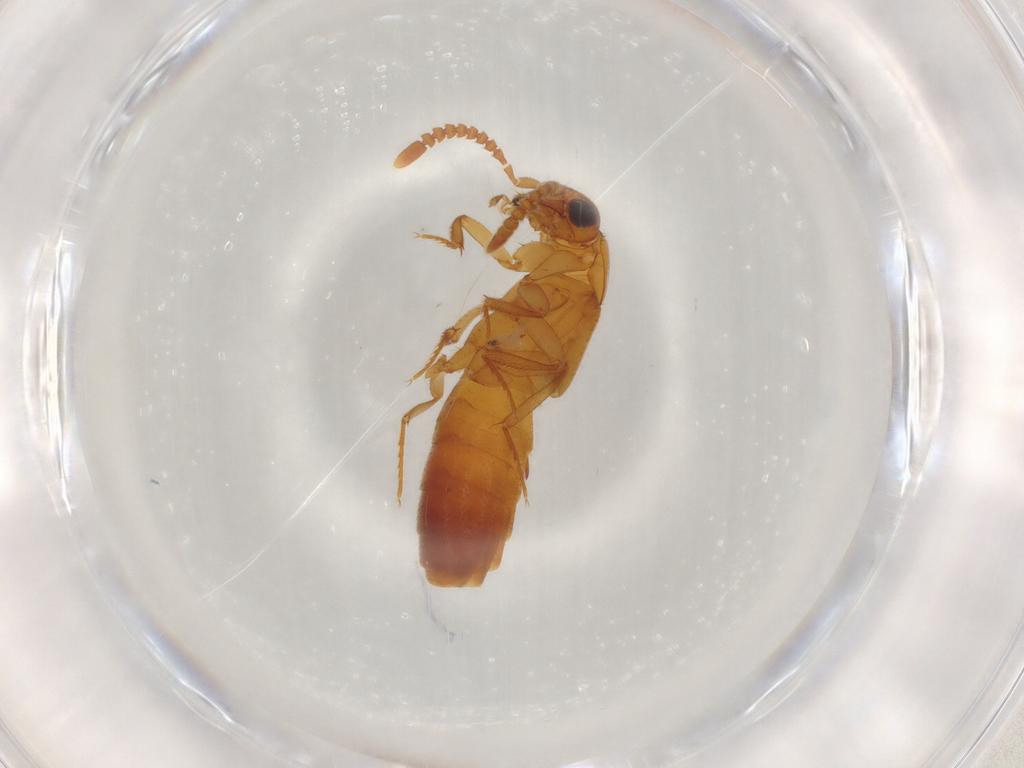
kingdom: Animalia
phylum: Arthropoda
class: Insecta
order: Coleoptera
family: Staphylinidae
